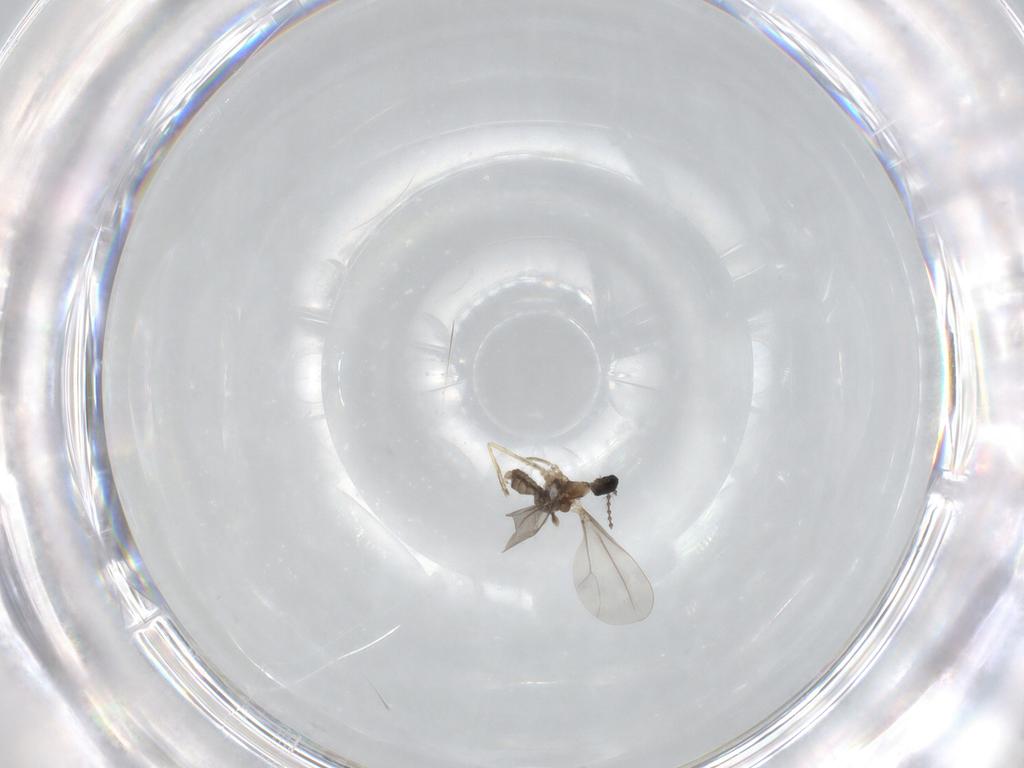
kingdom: Animalia
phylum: Arthropoda
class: Insecta
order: Diptera
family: Cecidomyiidae
